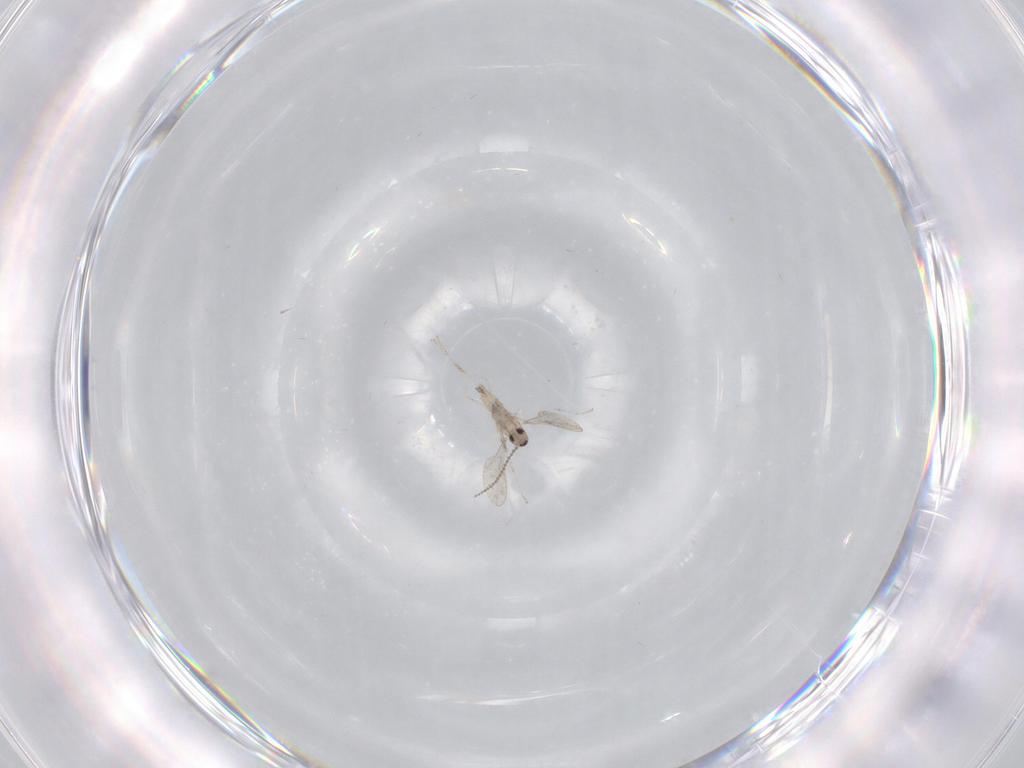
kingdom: Animalia
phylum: Arthropoda
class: Insecta
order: Diptera
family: Cecidomyiidae
